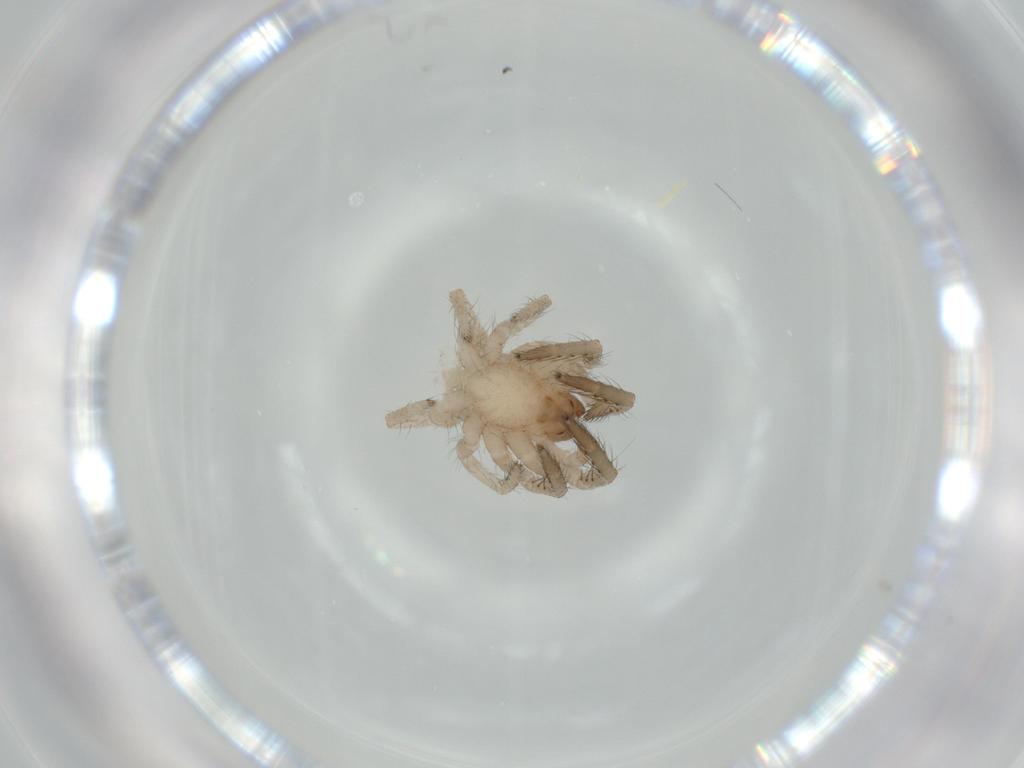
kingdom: Animalia
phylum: Arthropoda
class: Arachnida
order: Araneae
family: Segestriidae
